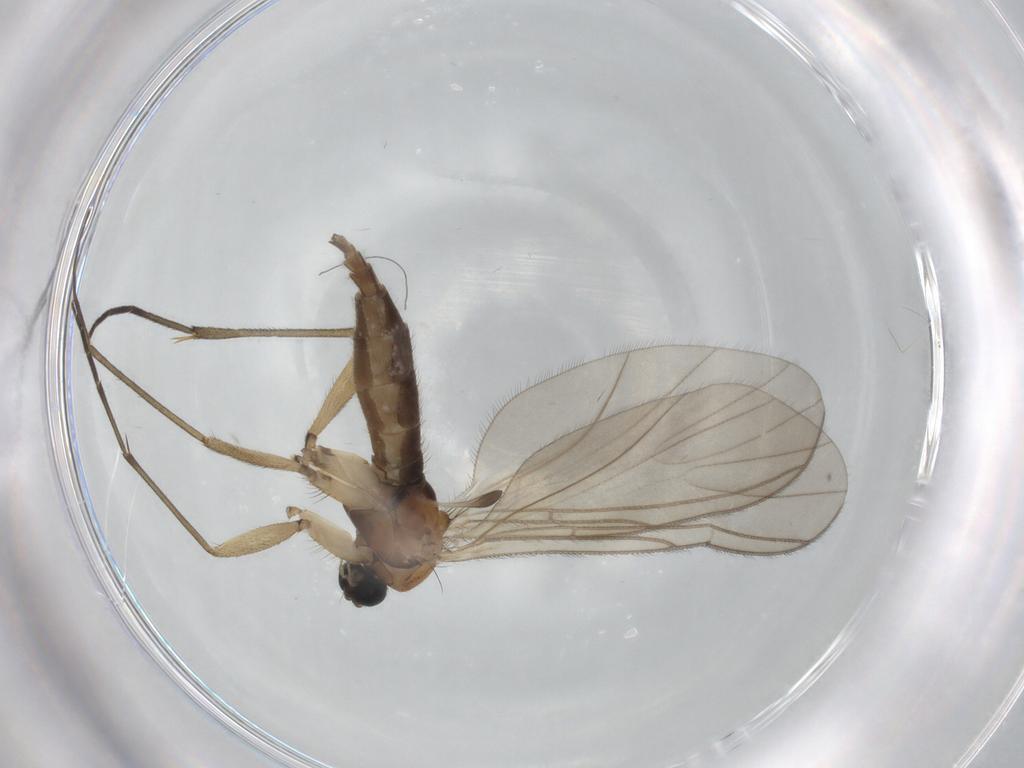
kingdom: Animalia
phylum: Arthropoda
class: Insecta
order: Diptera
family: Sciaridae
